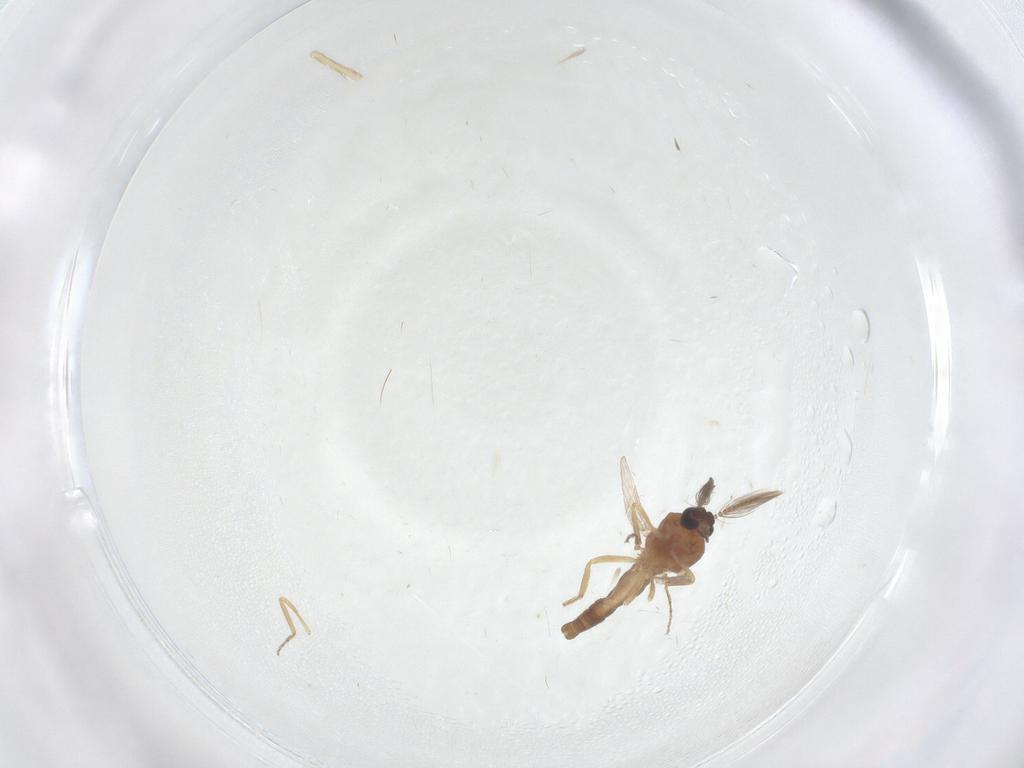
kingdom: Animalia
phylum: Arthropoda
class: Insecta
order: Diptera
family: Ceratopogonidae
